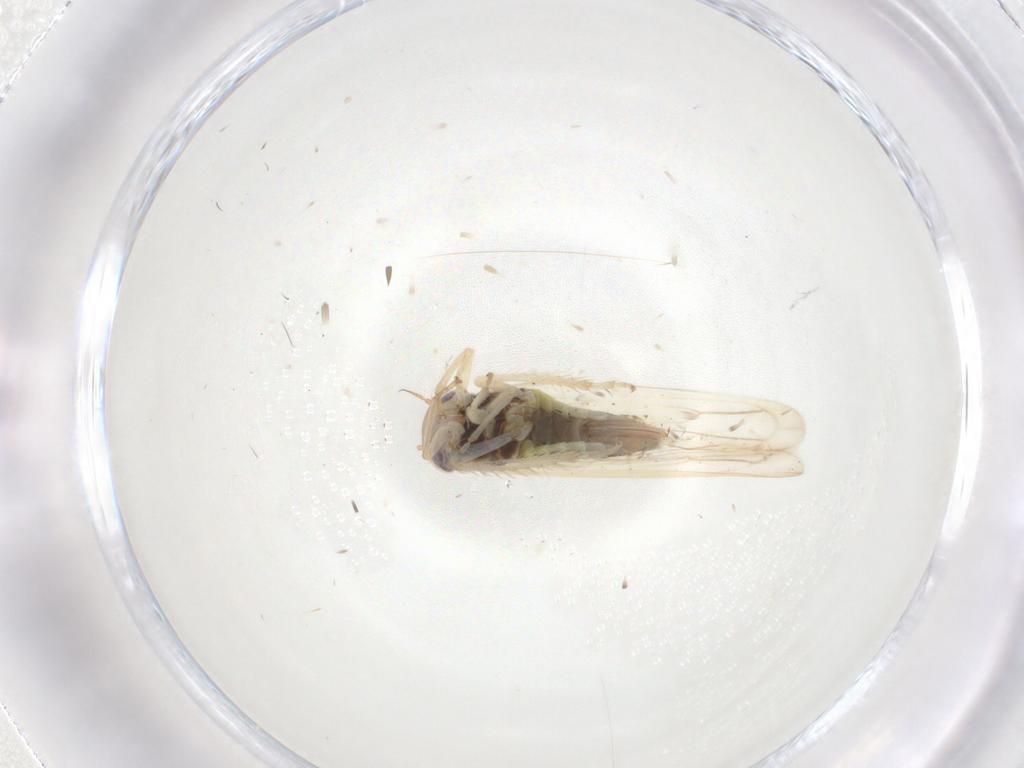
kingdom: Animalia
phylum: Arthropoda
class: Insecta
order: Hemiptera
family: Cicadellidae
